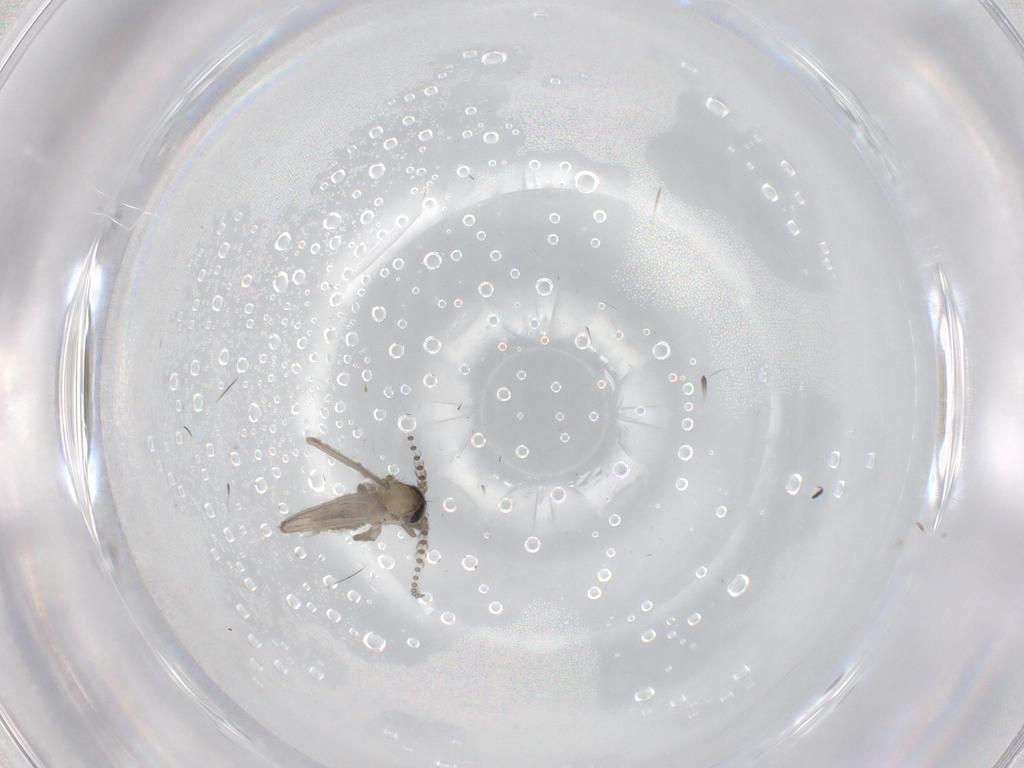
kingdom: Animalia
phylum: Arthropoda
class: Insecta
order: Diptera
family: Psychodidae
